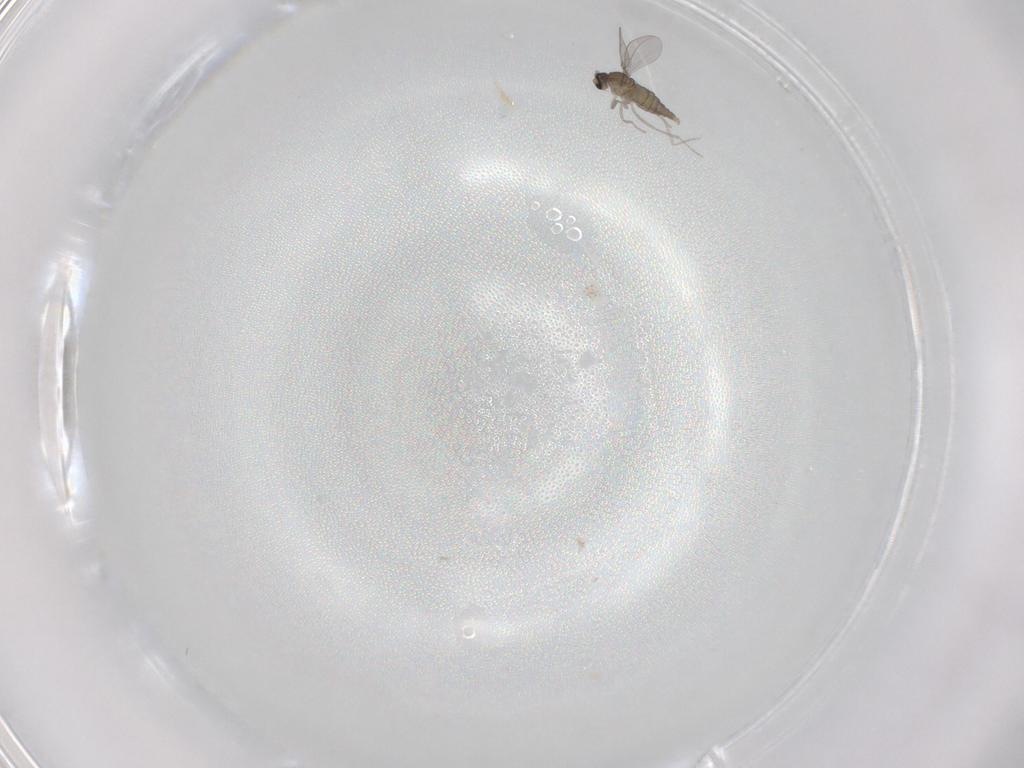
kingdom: Animalia
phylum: Arthropoda
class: Insecta
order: Diptera
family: Cecidomyiidae
